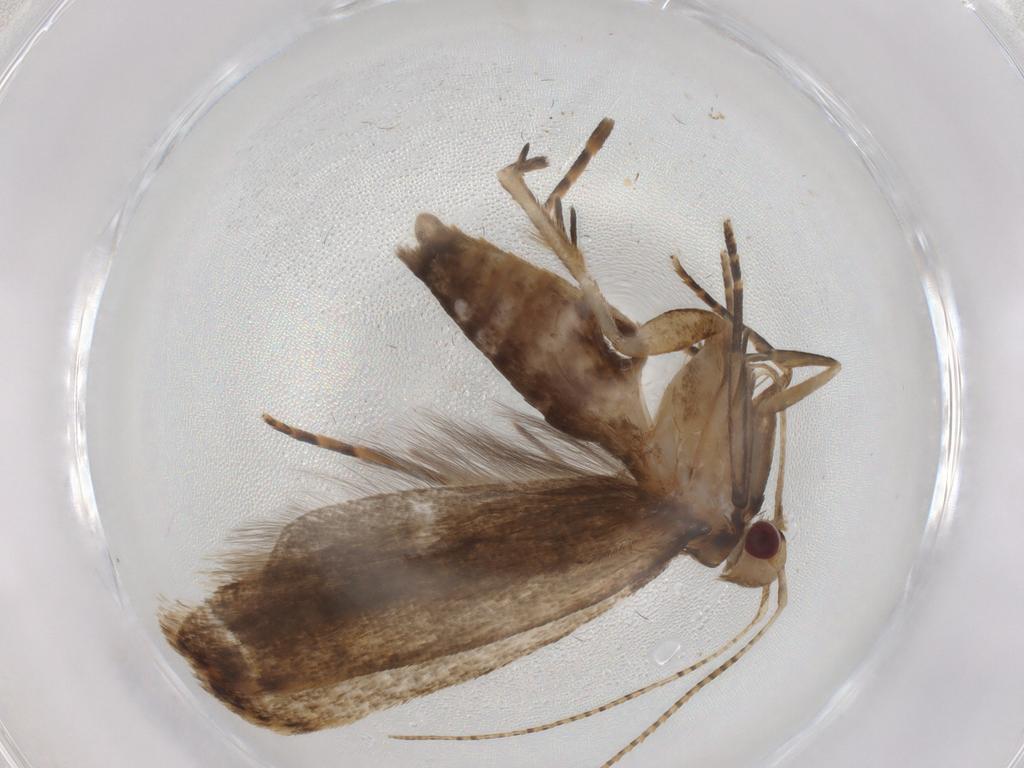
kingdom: Animalia
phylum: Arthropoda
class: Insecta
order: Lepidoptera
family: Gelechiidae
